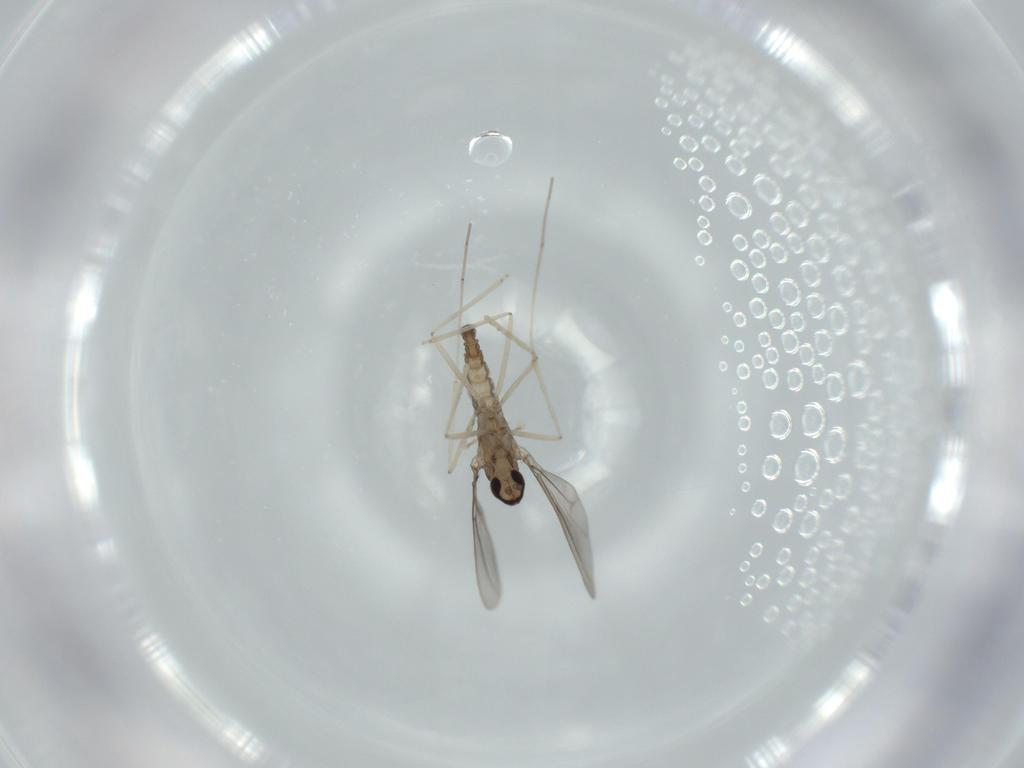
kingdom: Animalia
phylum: Arthropoda
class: Insecta
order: Diptera
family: Cecidomyiidae
